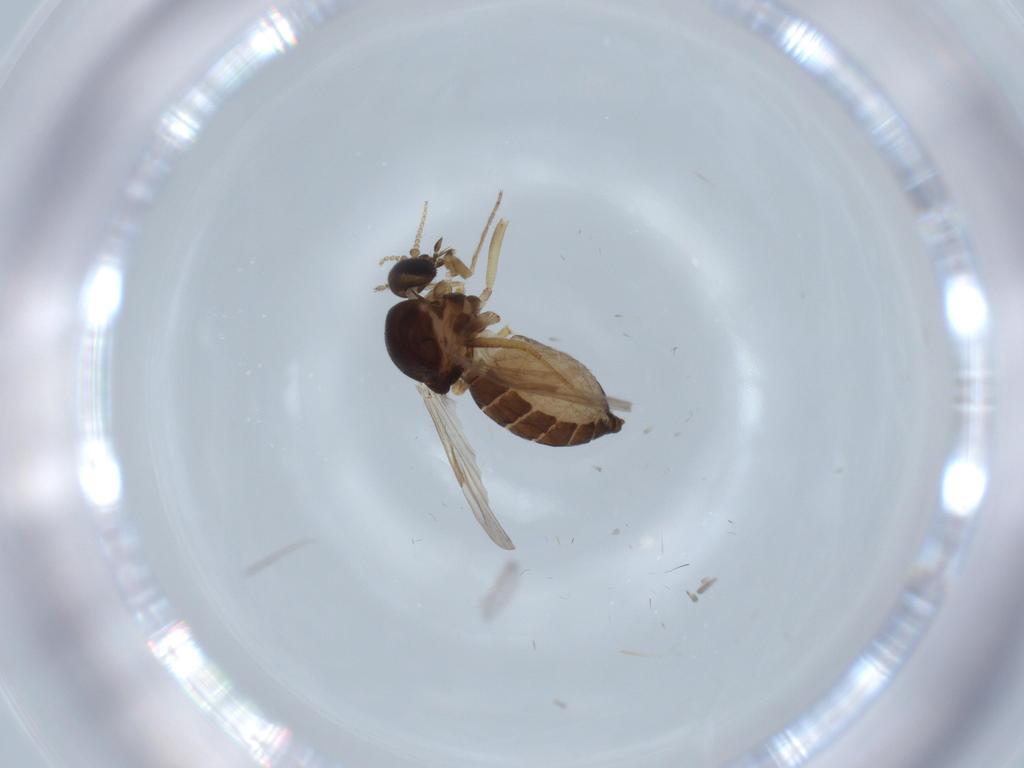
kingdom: Animalia
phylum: Arthropoda
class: Insecta
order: Diptera
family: Ceratopogonidae
